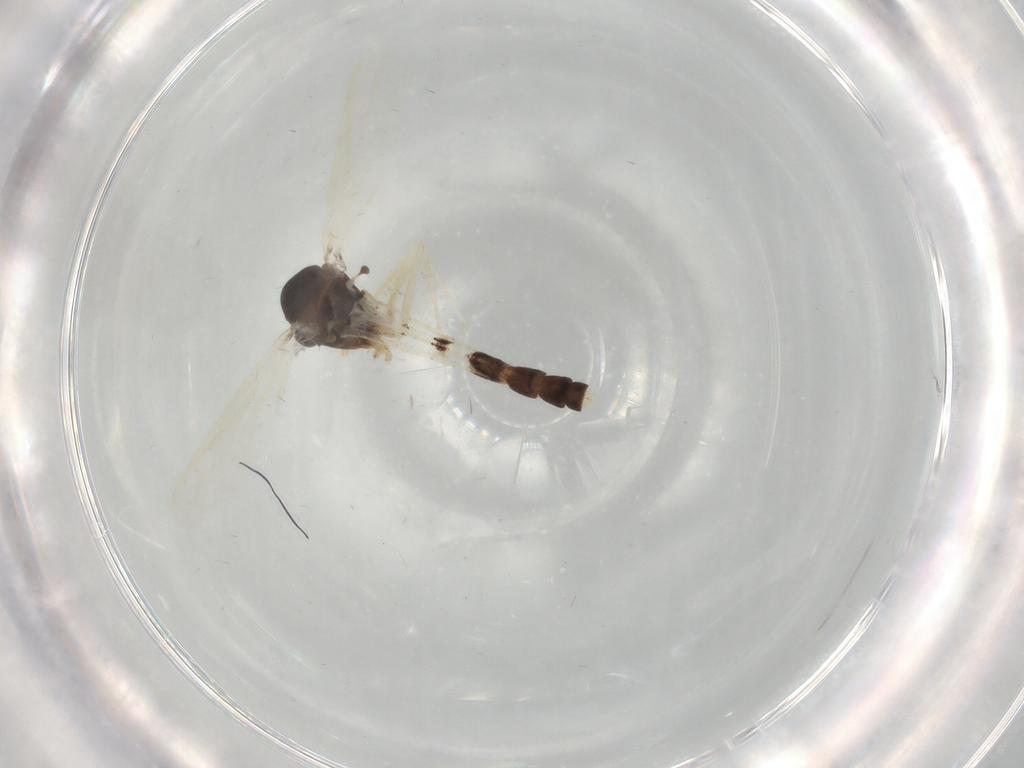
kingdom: Animalia
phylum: Arthropoda
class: Insecta
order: Diptera
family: Chironomidae
